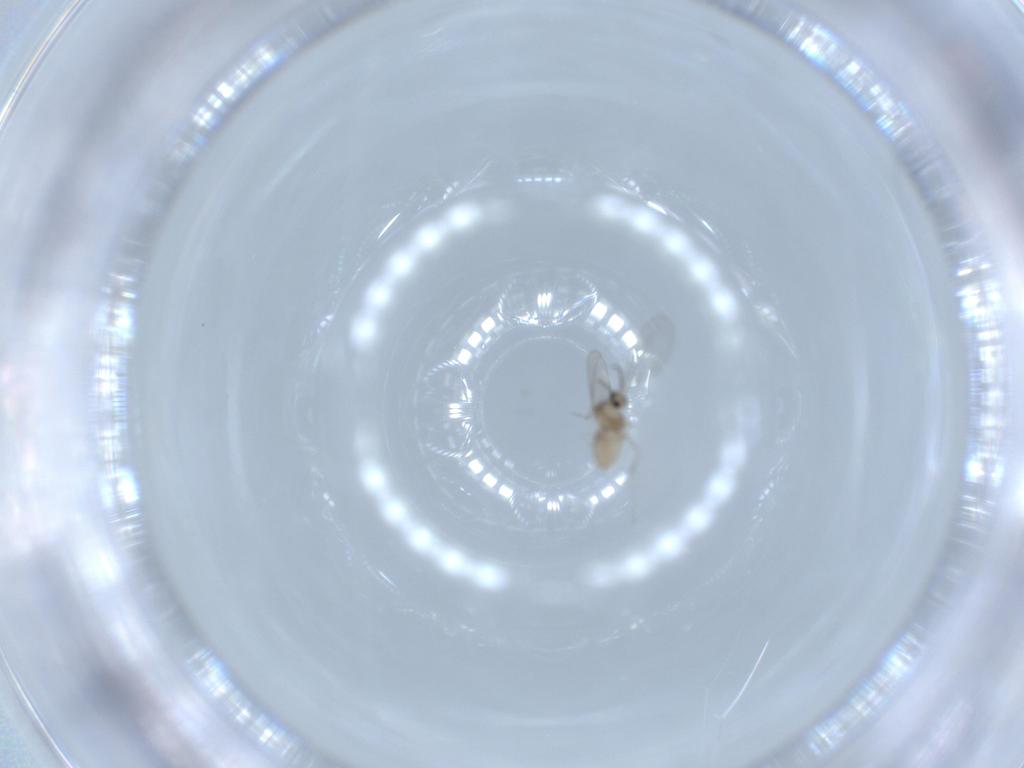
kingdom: Animalia
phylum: Arthropoda
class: Insecta
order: Diptera
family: Cecidomyiidae
